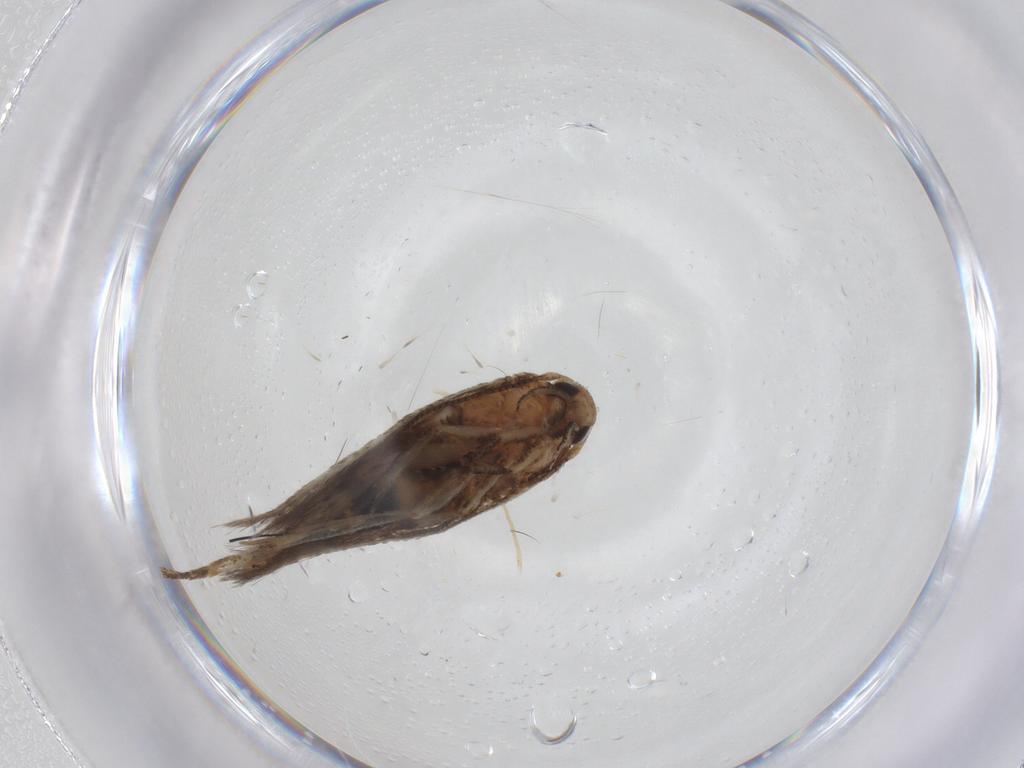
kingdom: Animalia
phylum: Arthropoda
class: Insecta
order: Lepidoptera
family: Cosmopterigidae
